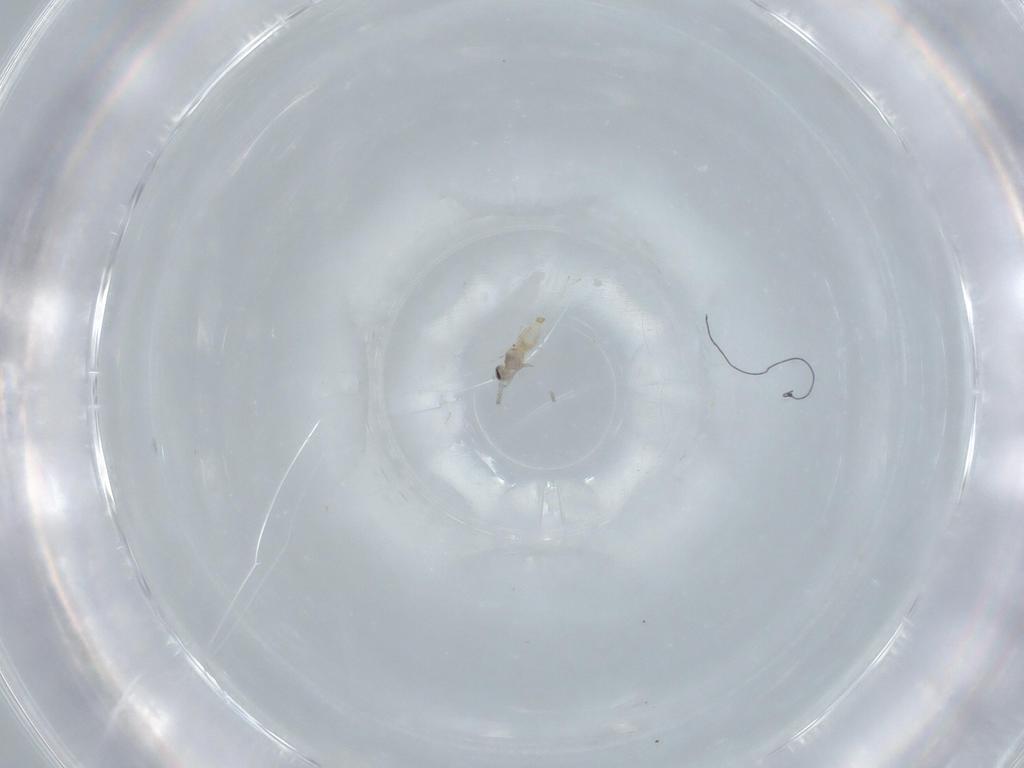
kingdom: Animalia
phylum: Arthropoda
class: Insecta
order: Diptera
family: Cecidomyiidae
